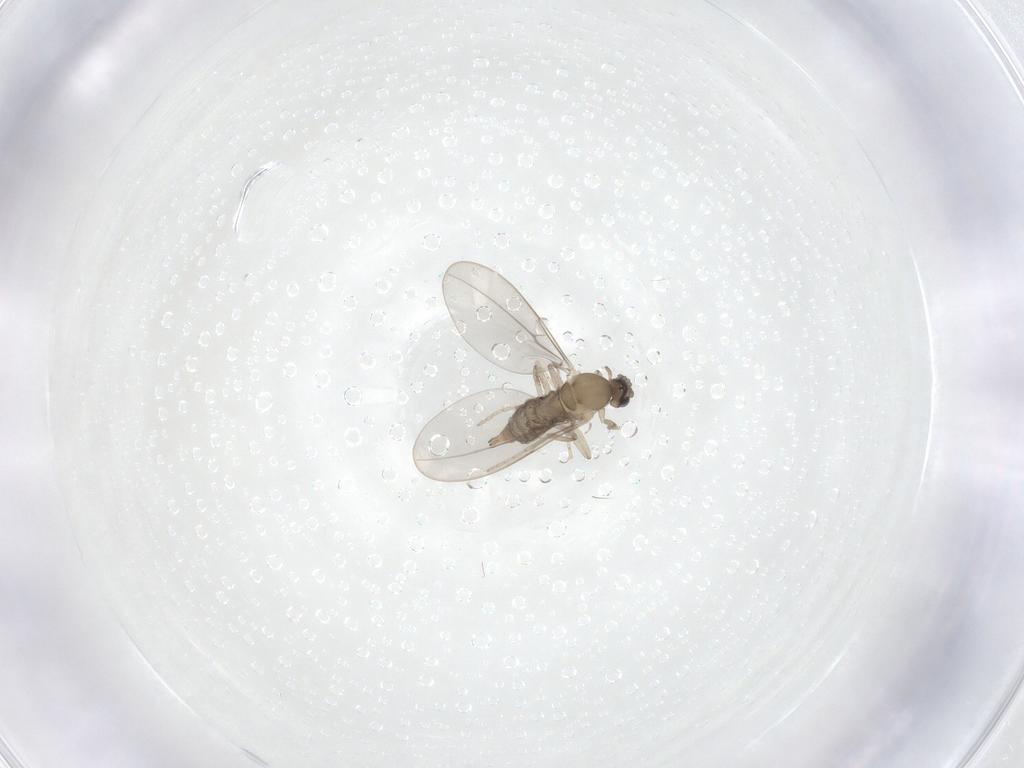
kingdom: Animalia
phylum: Arthropoda
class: Insecta
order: Diptera
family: Cecidomyiidae
